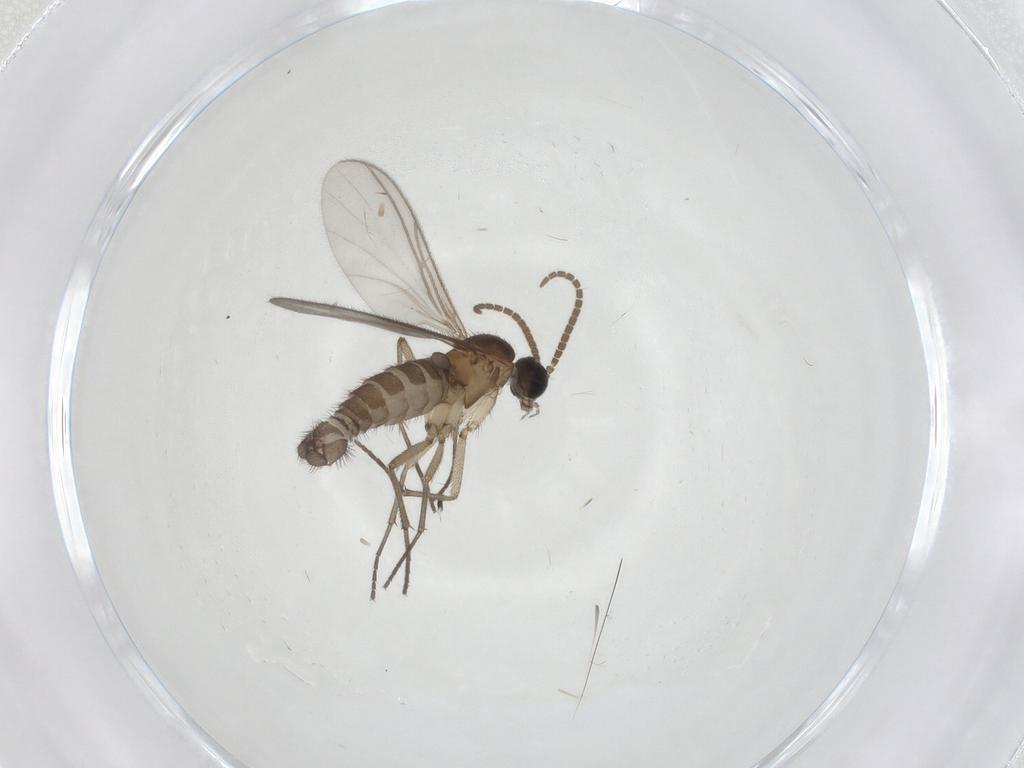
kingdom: Animalia
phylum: Arthropoda
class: Insecta
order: Diptera
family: Sciaridae
